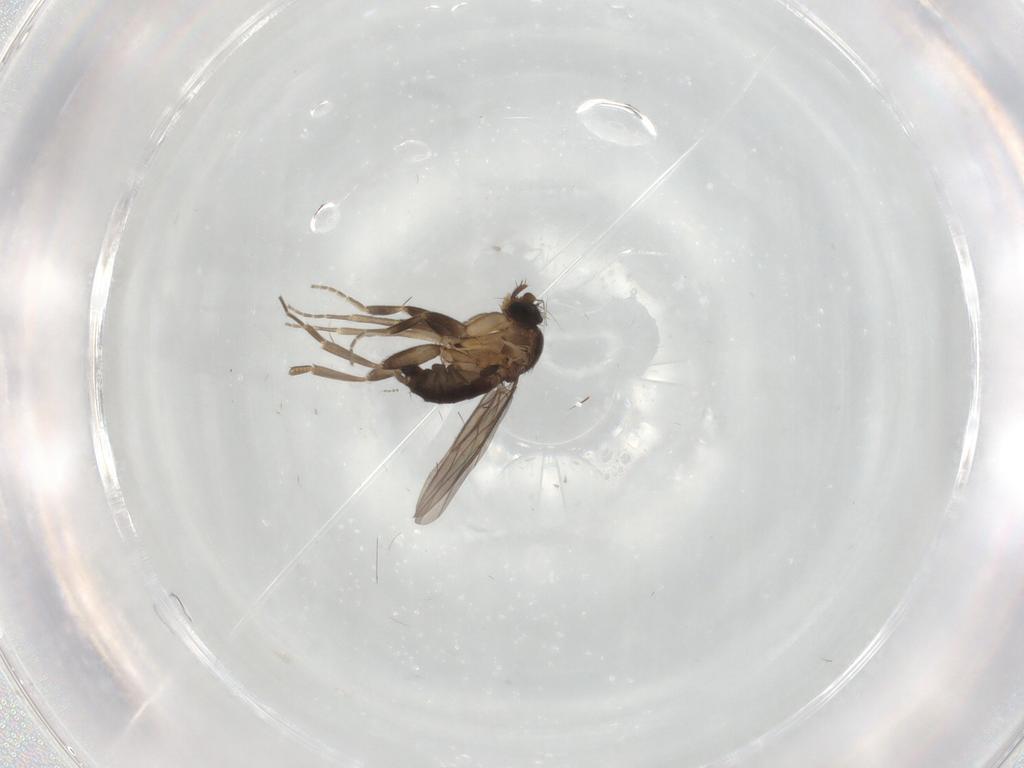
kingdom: Animalia
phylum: Arthropoda
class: Insecta
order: Diptera
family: Cecidomyiidae
